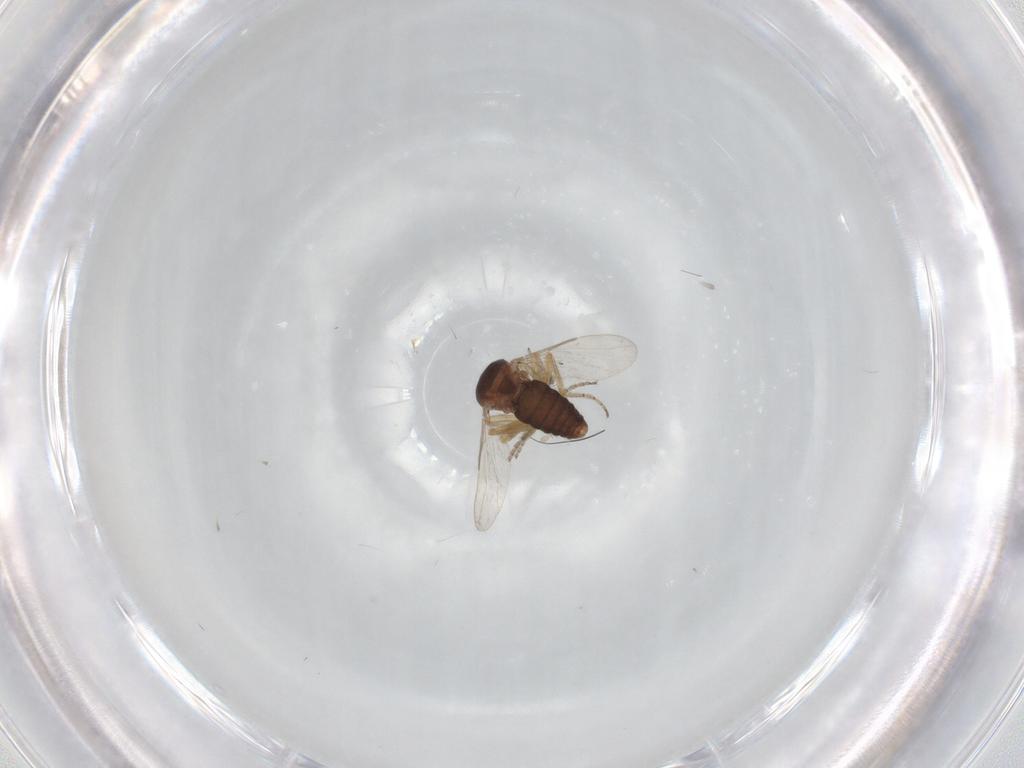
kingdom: Animalia
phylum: Arthropoda
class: Insecta
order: Diptera
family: Ceratopogonidae
